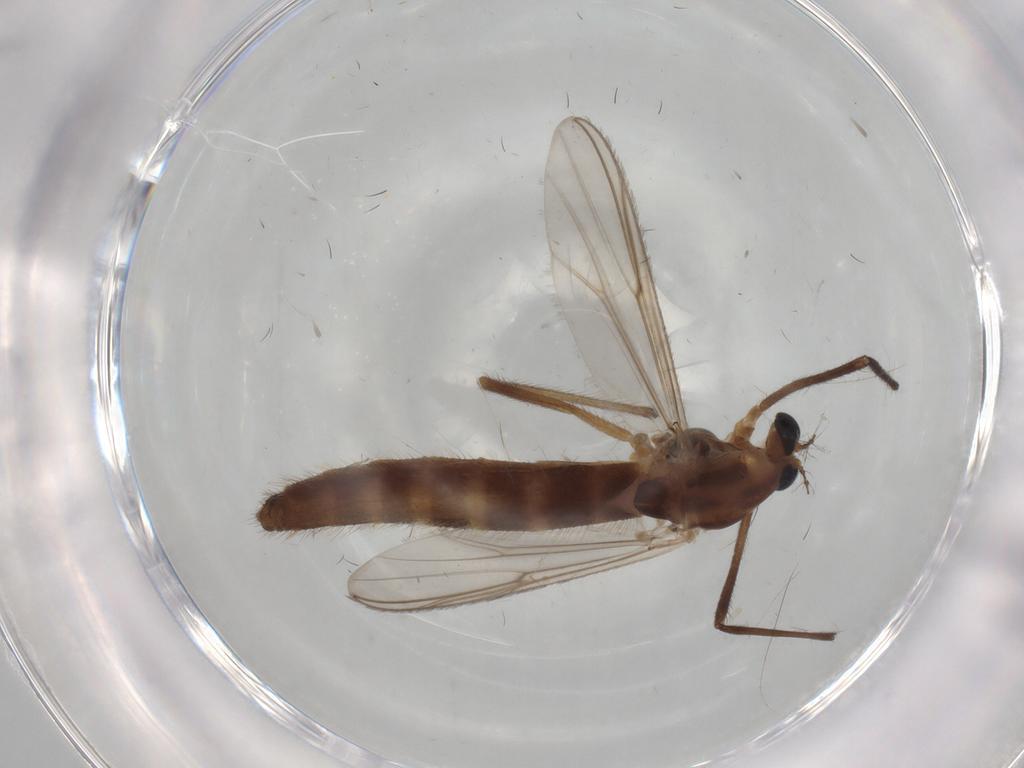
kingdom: Animalia
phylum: Arthropoda
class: Insecta
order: Diptera
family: Chironomidae
